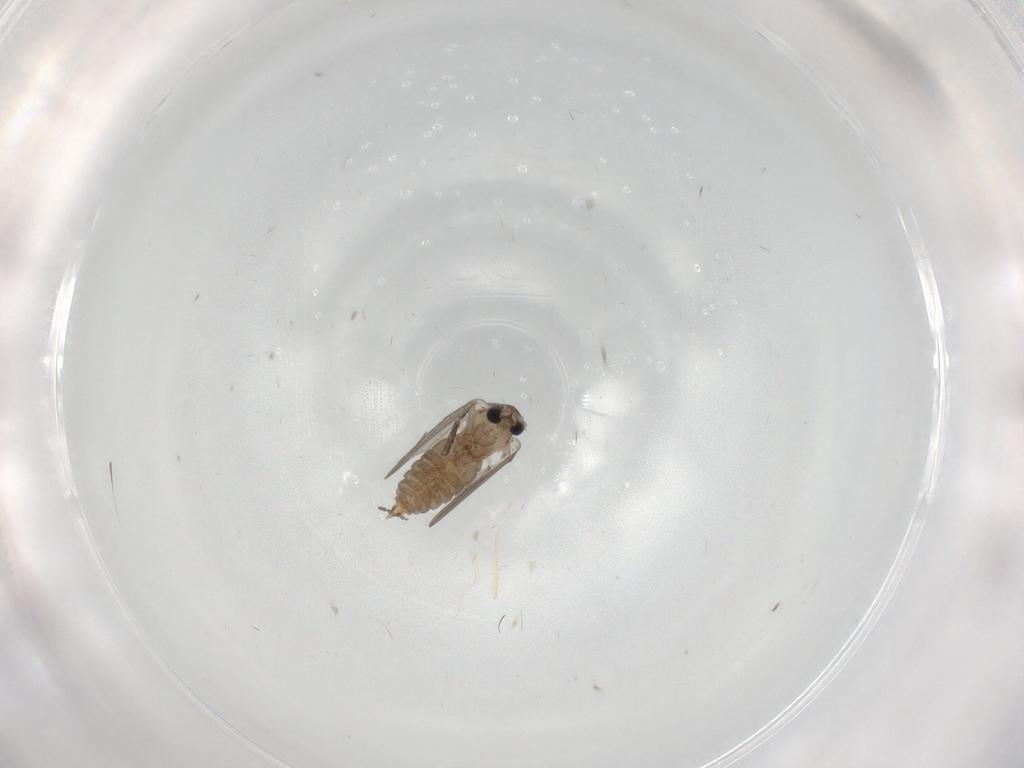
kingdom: Animalia
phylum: Arthropoda
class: Insecta
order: Diptera
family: Cecidomyiidae
